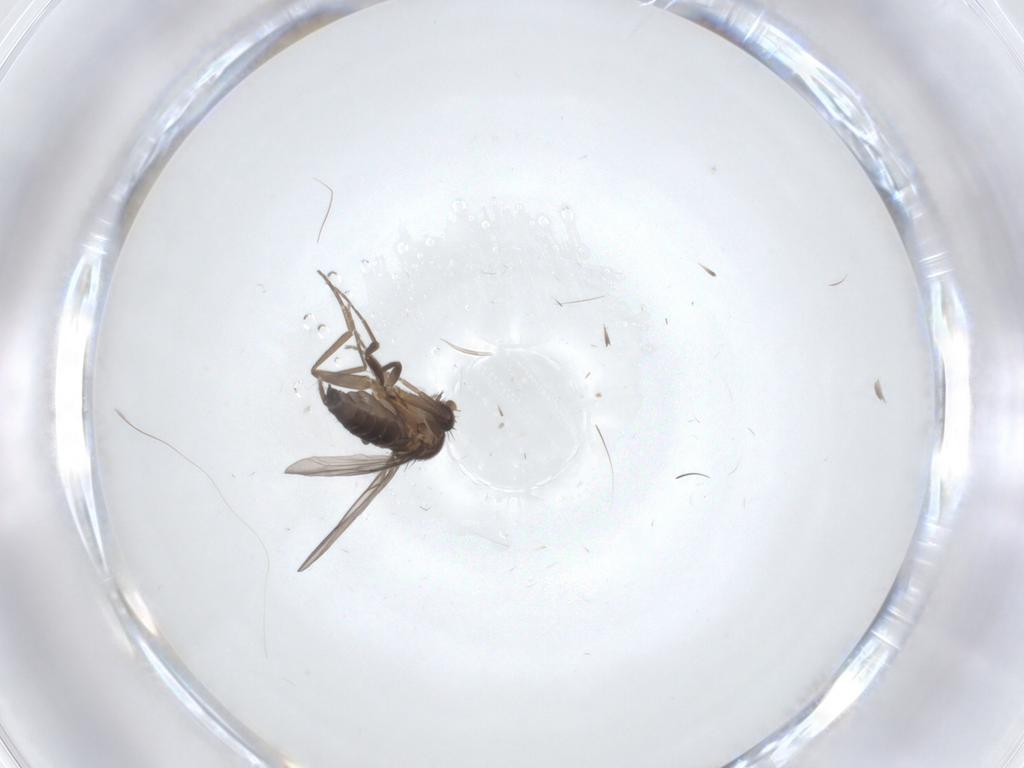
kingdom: Animalia
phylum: Arthropoda
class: Insecta
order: Diptera
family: Phoridae
